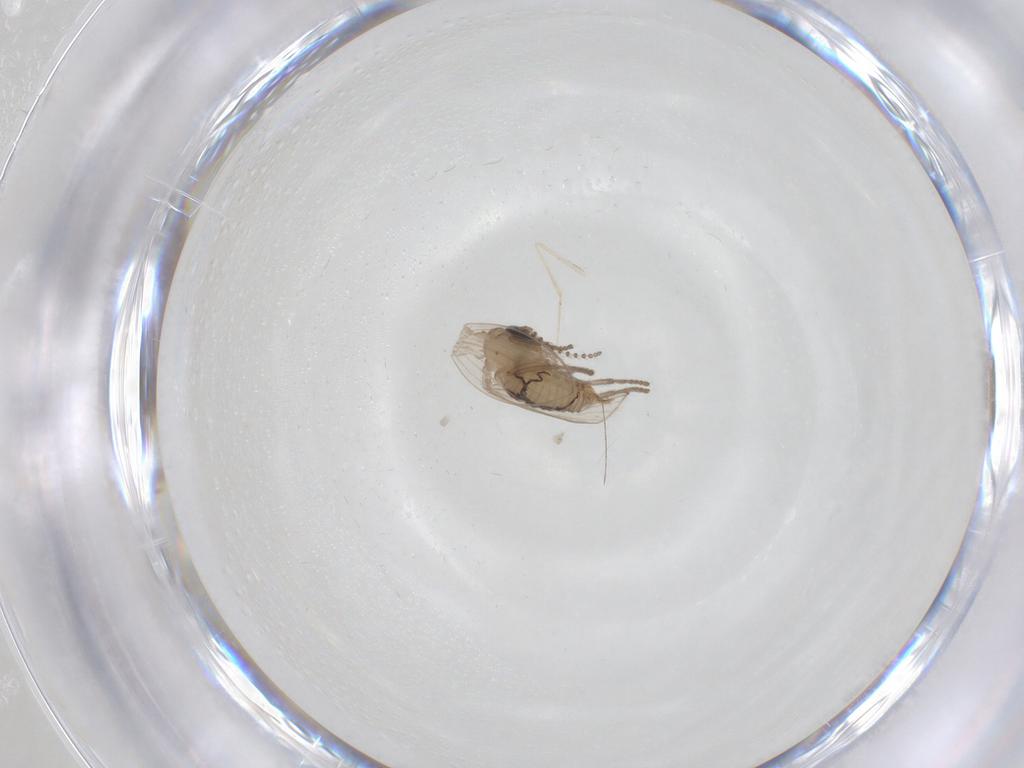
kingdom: Animalia
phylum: Arthropoda
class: Insecta
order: Diptera
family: Psychodidae
